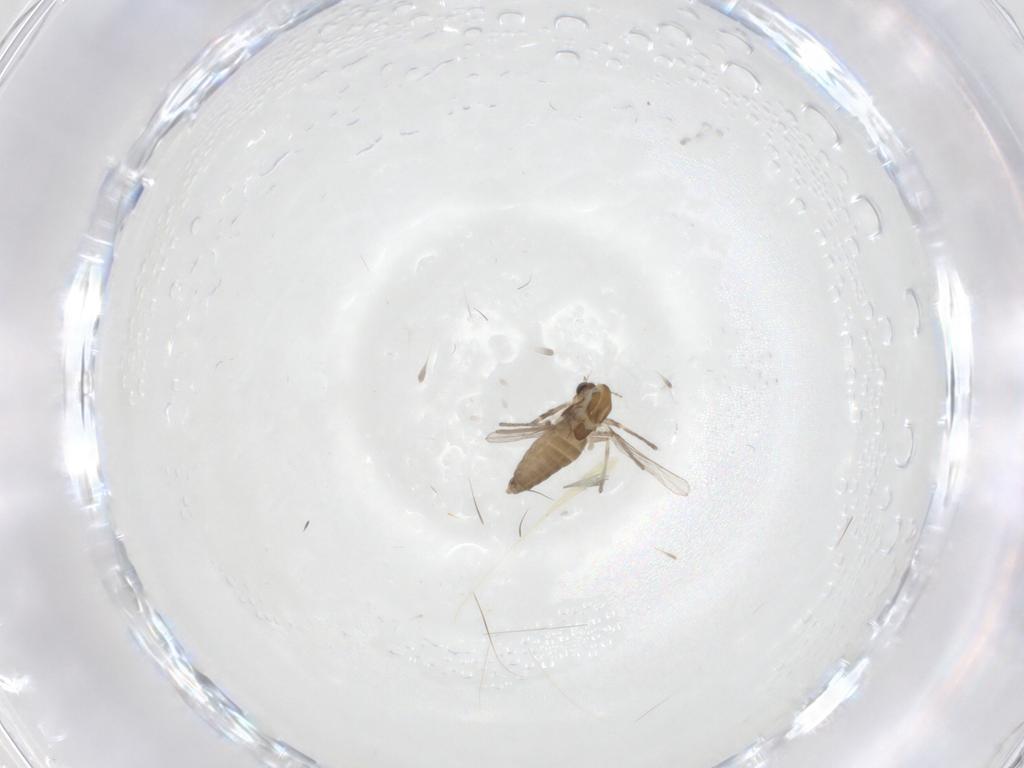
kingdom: Animalia
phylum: Arthropoda
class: Insecta
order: Diptera
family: Chironomidae
